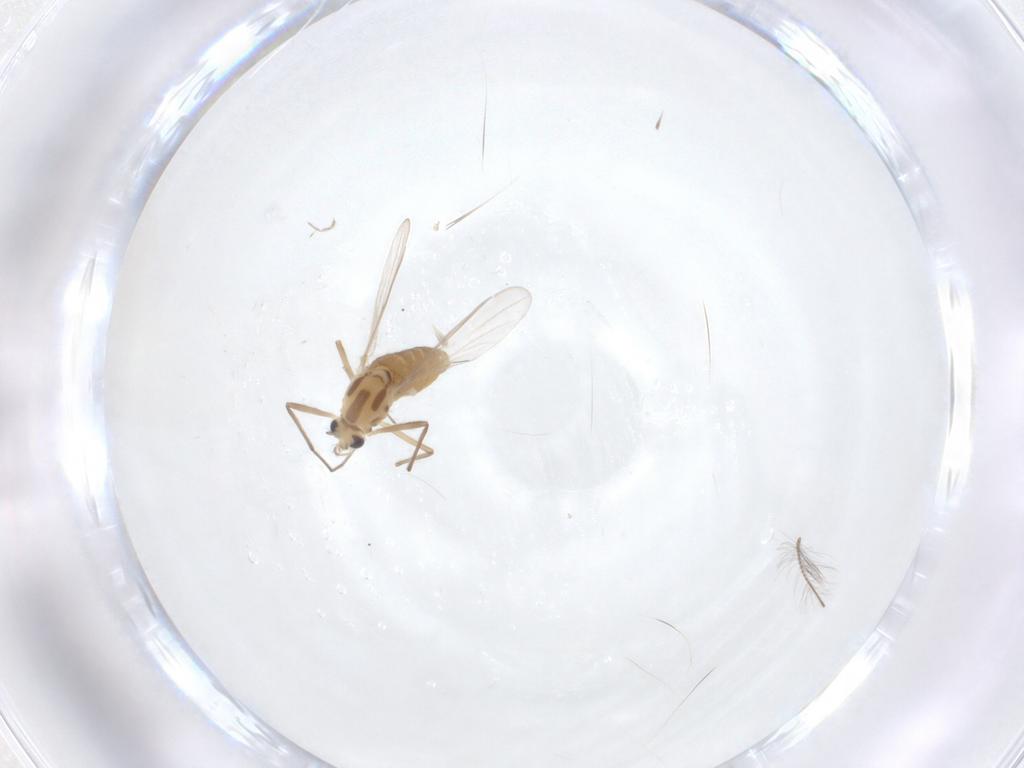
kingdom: Animalia
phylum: Arthropoda
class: Insecta
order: Diptera
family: Chironomidae
